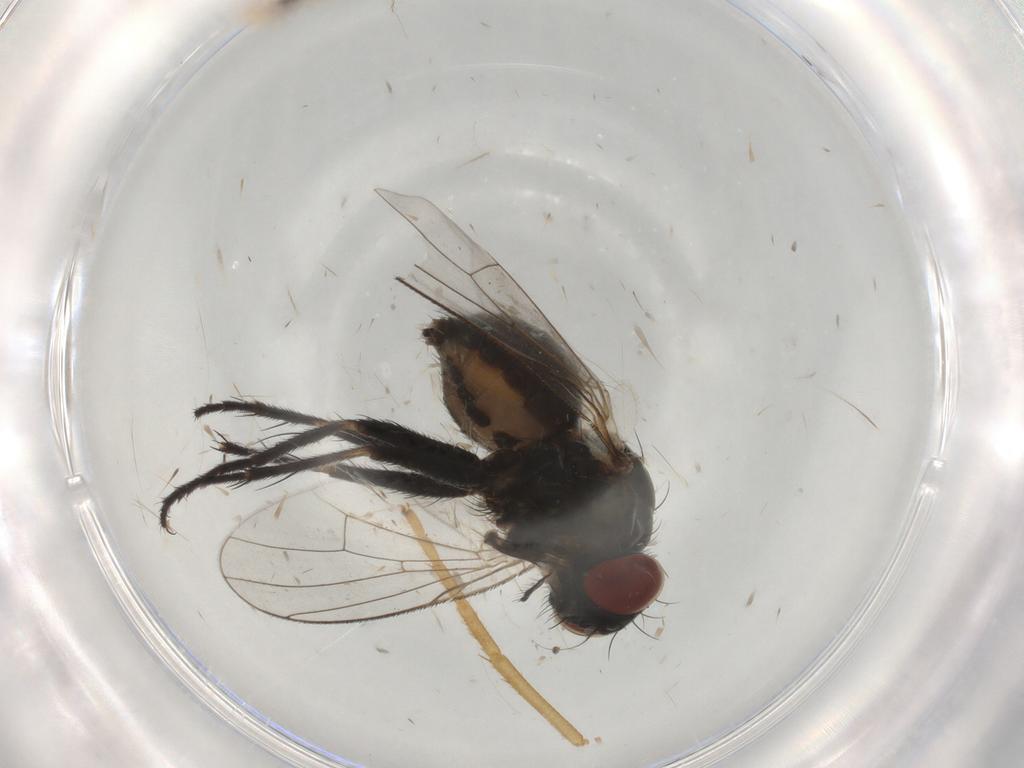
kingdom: Animalia
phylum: Arthropoda
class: Insecta
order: Diptera
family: Muscidae
